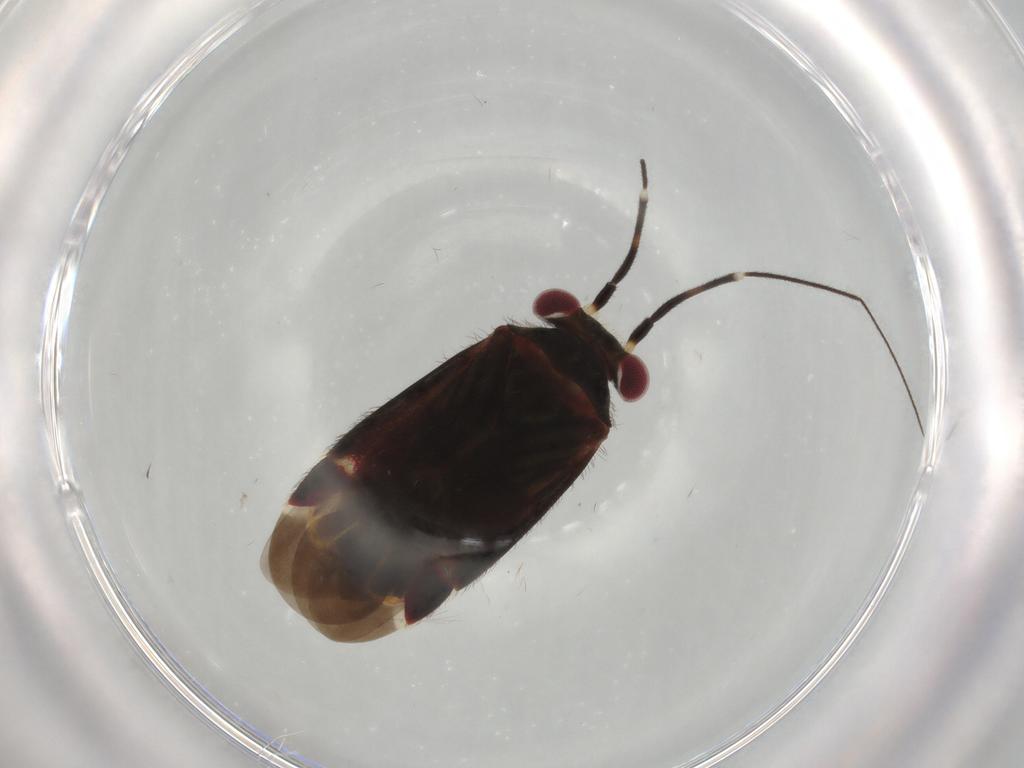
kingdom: Animalia
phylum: Arthropoda
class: Insecta
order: Hemiptera
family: Miridae
